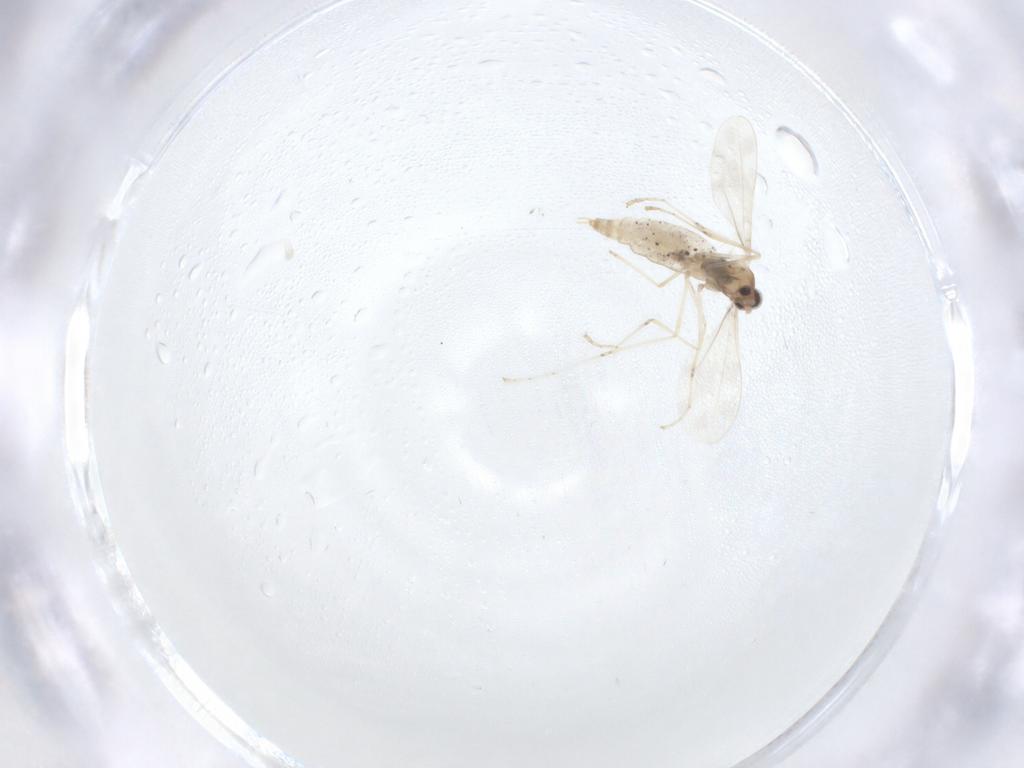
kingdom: Animalia
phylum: Arthropoda
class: Insecta
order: Diptera
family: Cecidomyiidae
